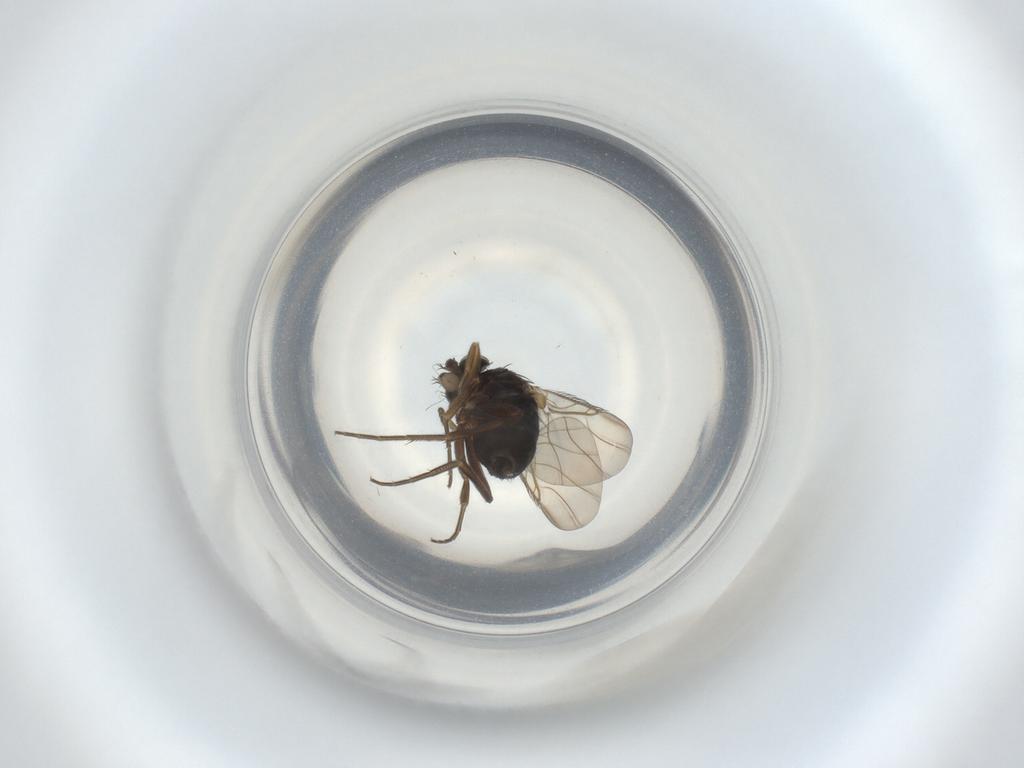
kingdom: Animalia
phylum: Arthropoda
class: Insecta
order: Diptera
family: Phoridae
